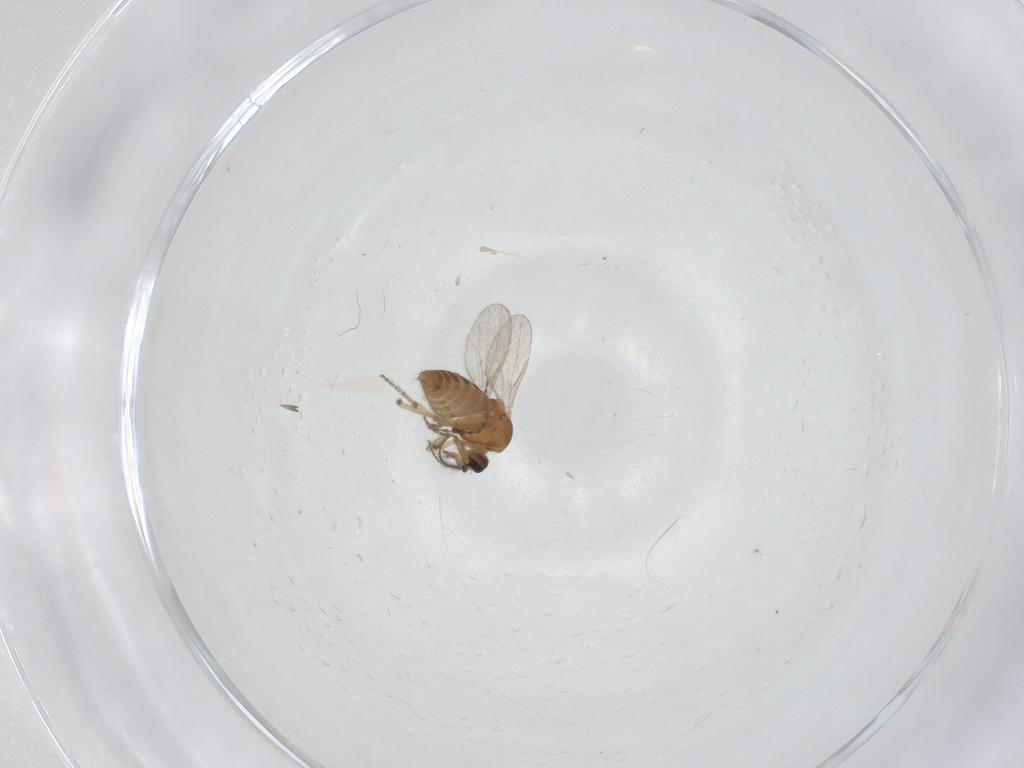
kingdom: Animalia
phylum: Arthropoda
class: Insecta
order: Diptera
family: Ceratopogonidae
